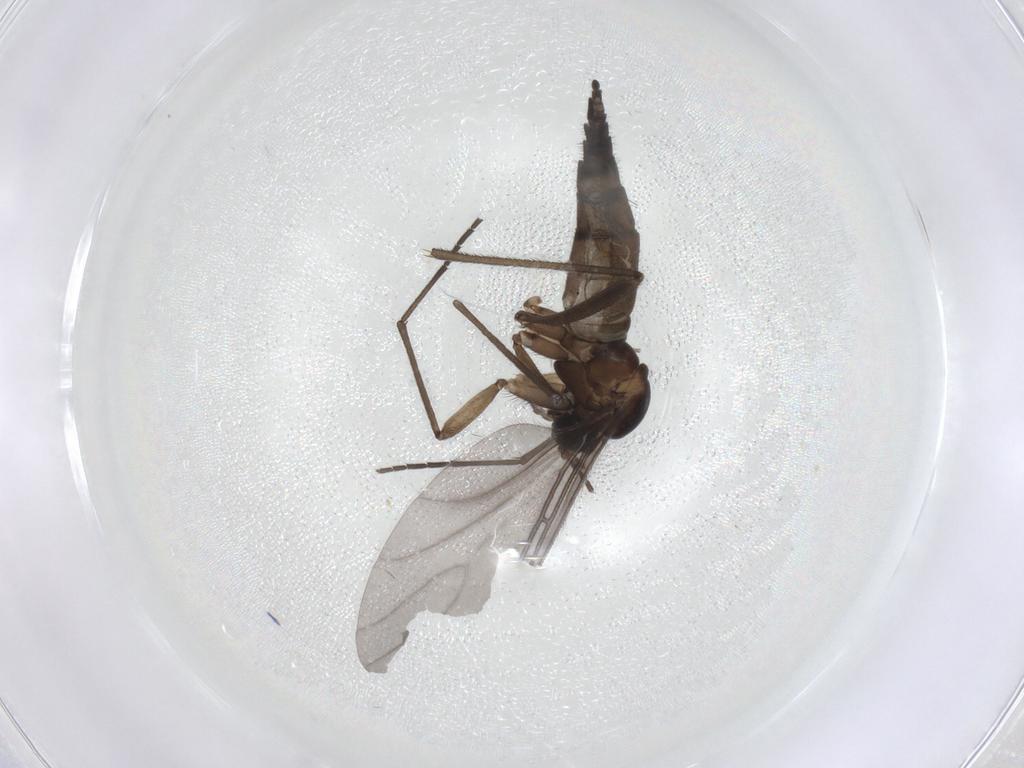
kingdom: Animalia
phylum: Arthropoda
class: Insecta
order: Diptera
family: Sciaridae
